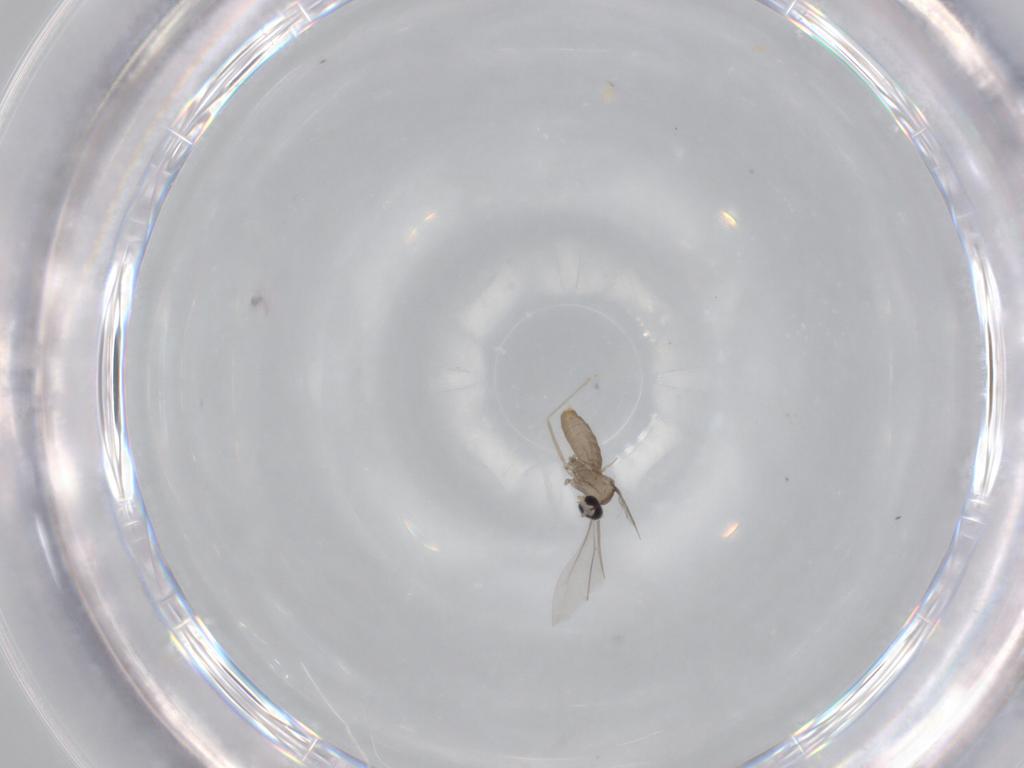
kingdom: Animalia
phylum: Arthropoda
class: Insecta
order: Diptera
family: Cecidomyiidae
